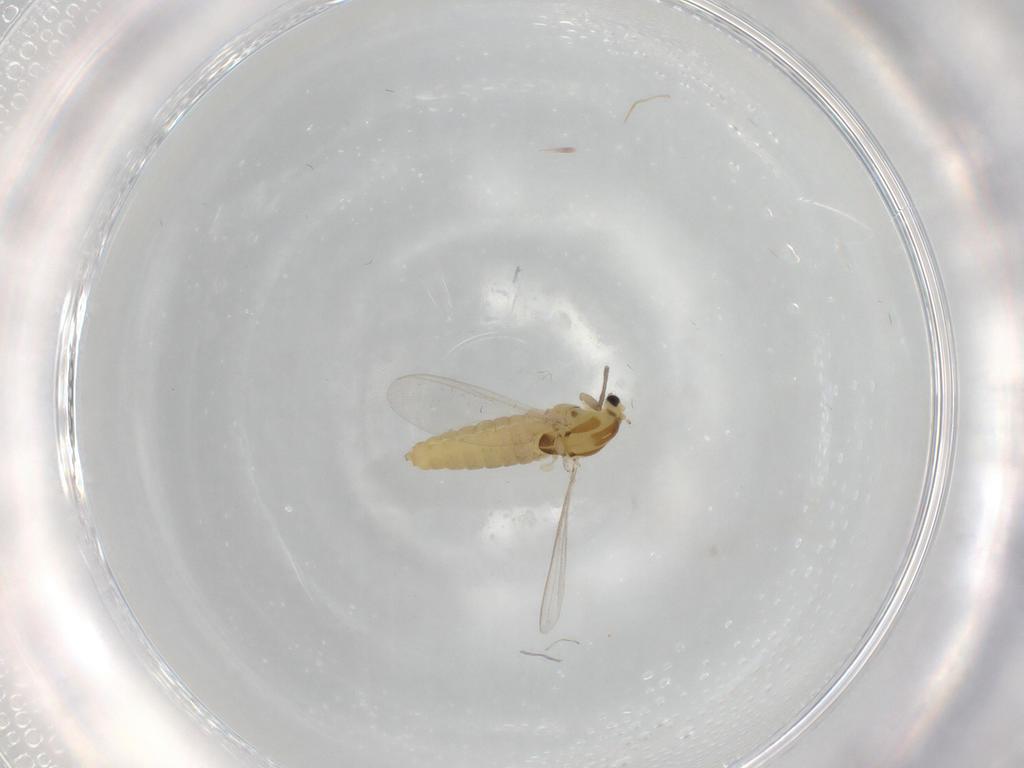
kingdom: Animalia
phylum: Arthropoda
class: Insecta
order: Diptera
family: Chironomidae
